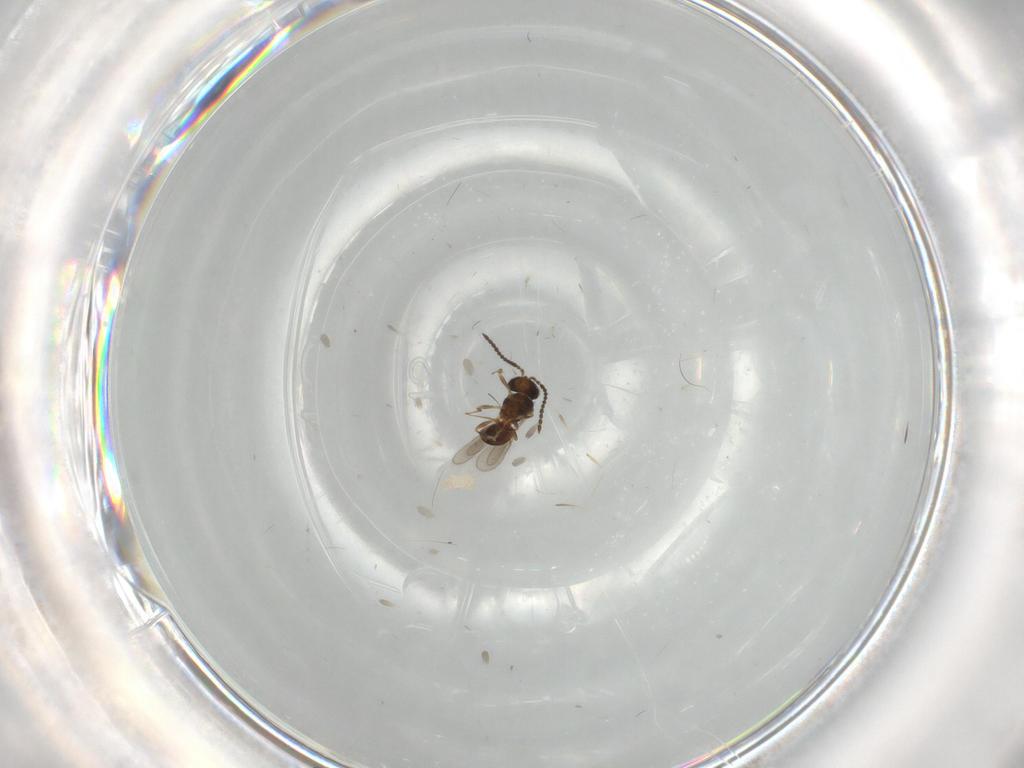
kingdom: Animalia
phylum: Arthropoda
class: Insecta
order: Hymenoptera
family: Scelionidae
